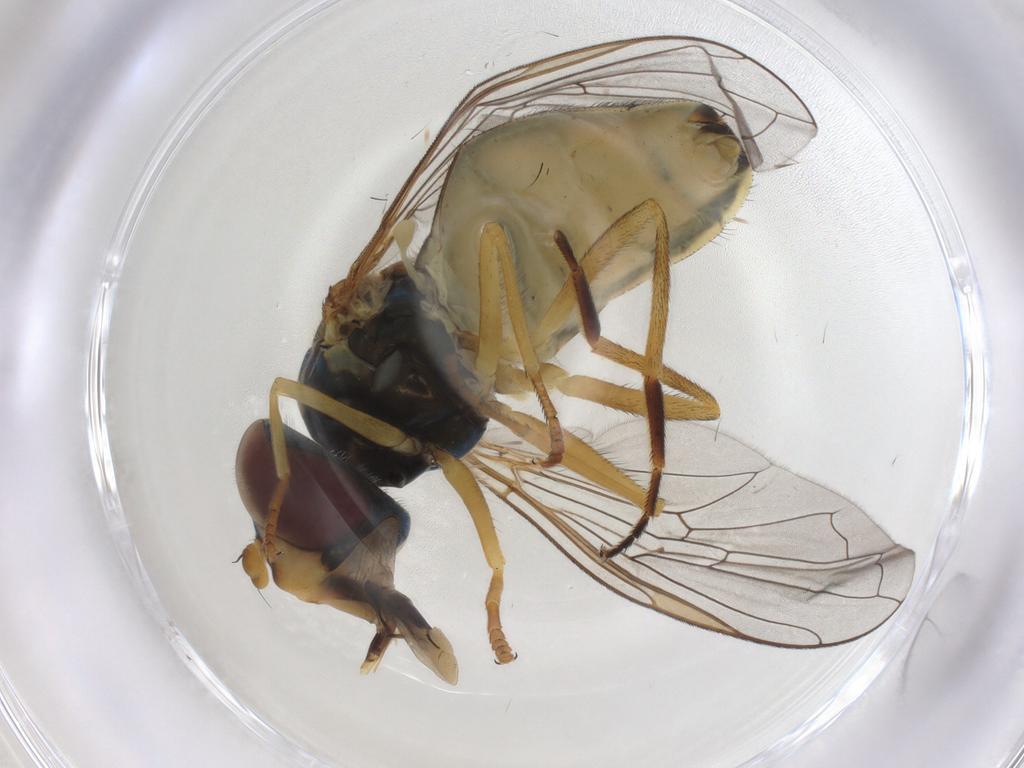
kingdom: Animalia
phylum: Arthropoda
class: Insecta
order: Diptera
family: Syrphidae
